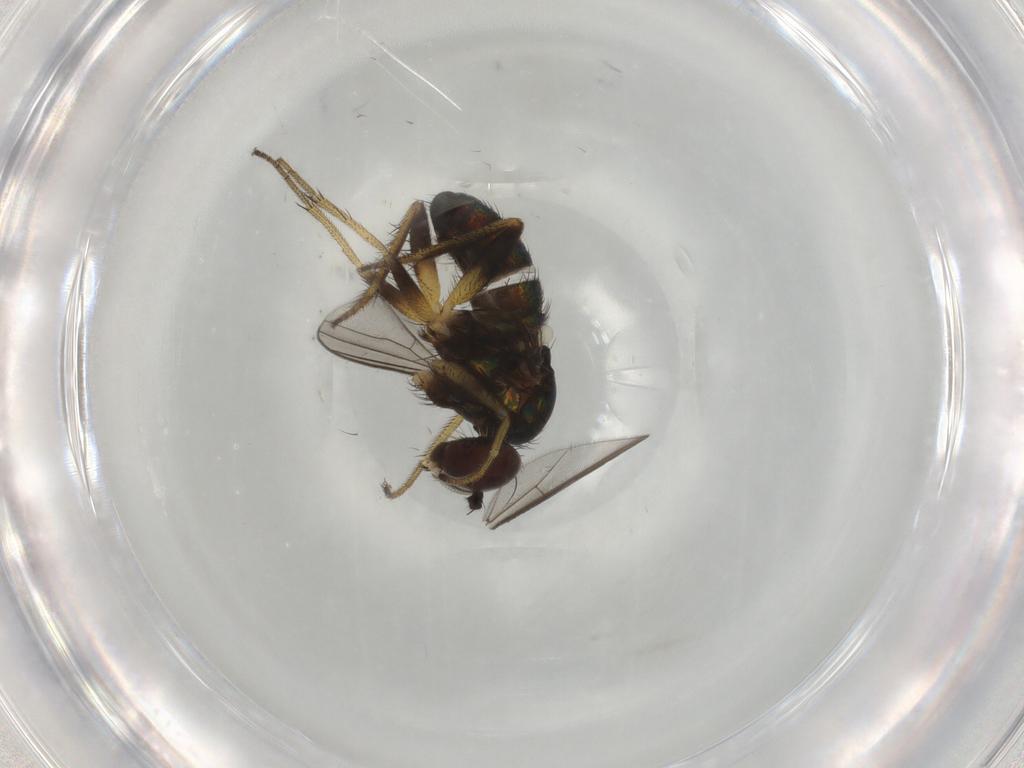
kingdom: Animalia
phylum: Arthropoda
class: Insecta
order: Diptera
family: Dolichopodidae
